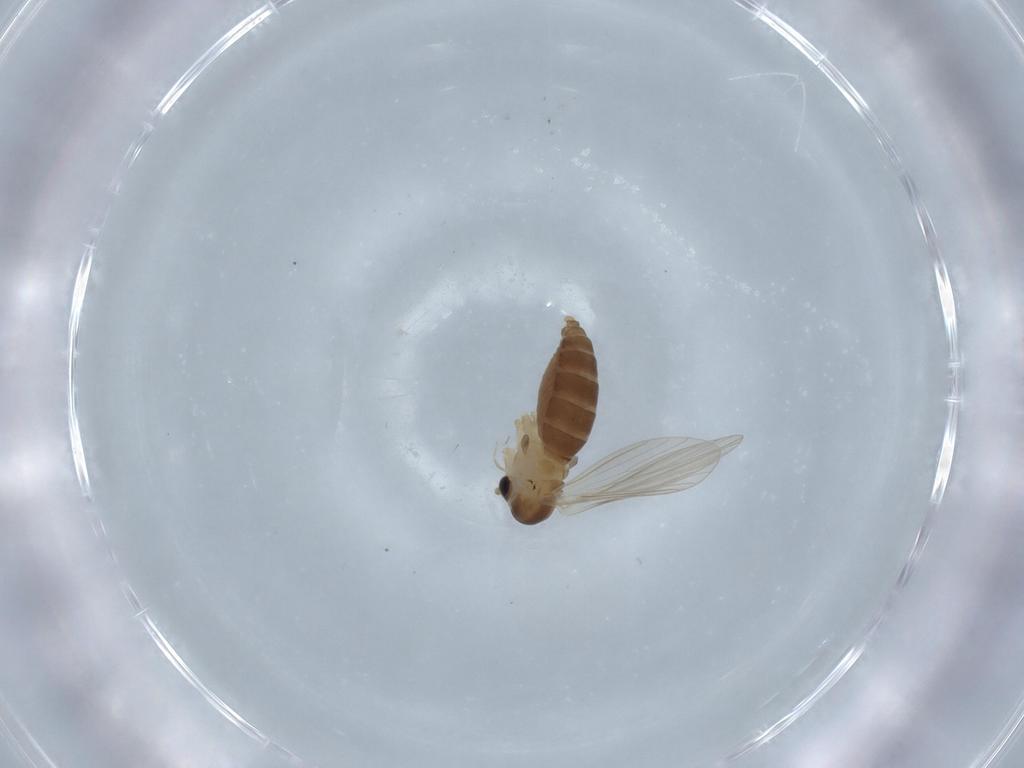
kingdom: Animalia
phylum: Arthropoda
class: Insecta
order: Diptera
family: Psychodidae
